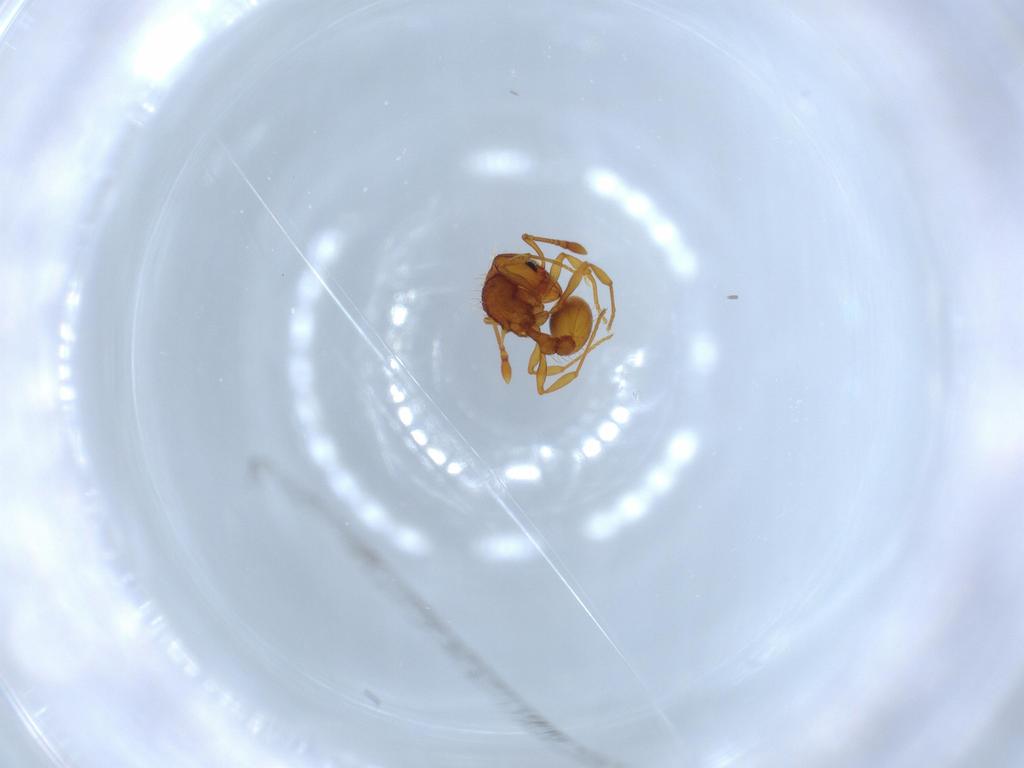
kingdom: Animalia
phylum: Arthropoda
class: Insecta
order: Hymenoptera
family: Formicidae
